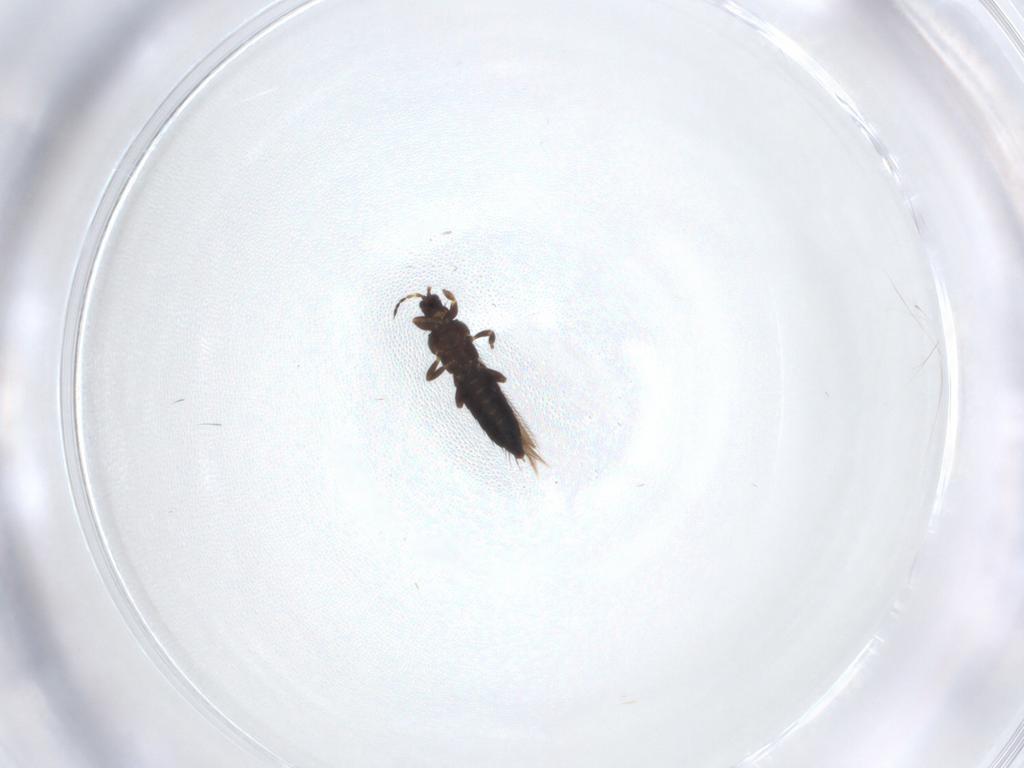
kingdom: Animalia
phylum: Arthropoda
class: Insecta
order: Thysanoptera
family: Thripidae
